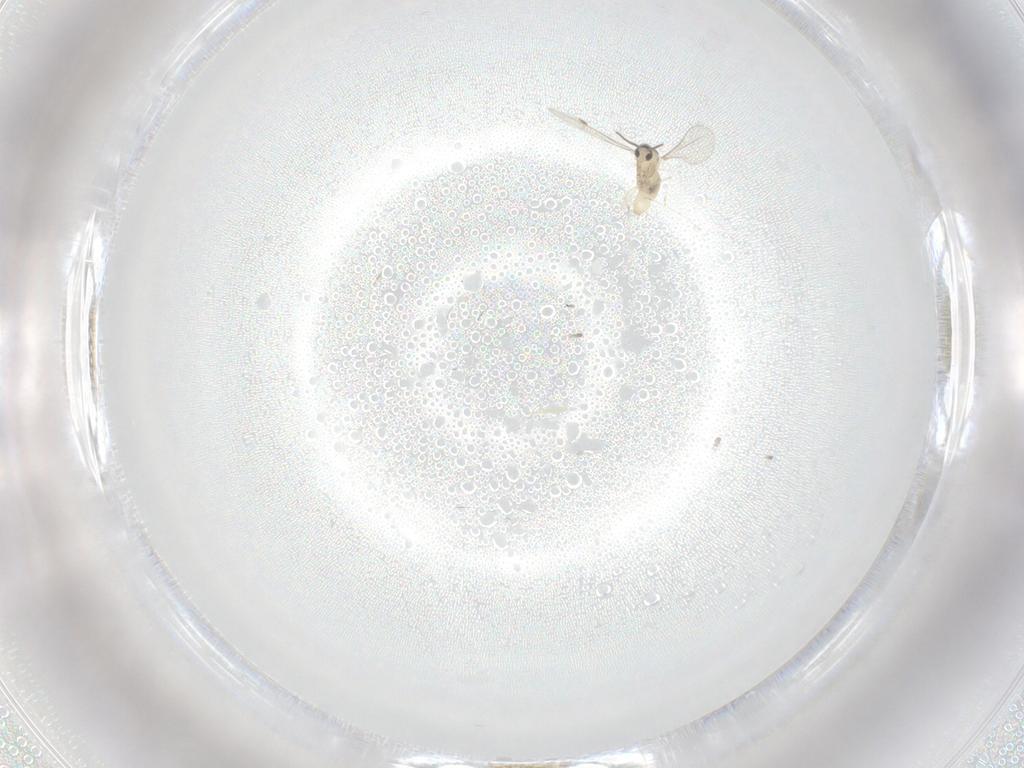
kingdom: Animalia
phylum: Arthropoda
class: Insecta
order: Diptera
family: Psychodidae
